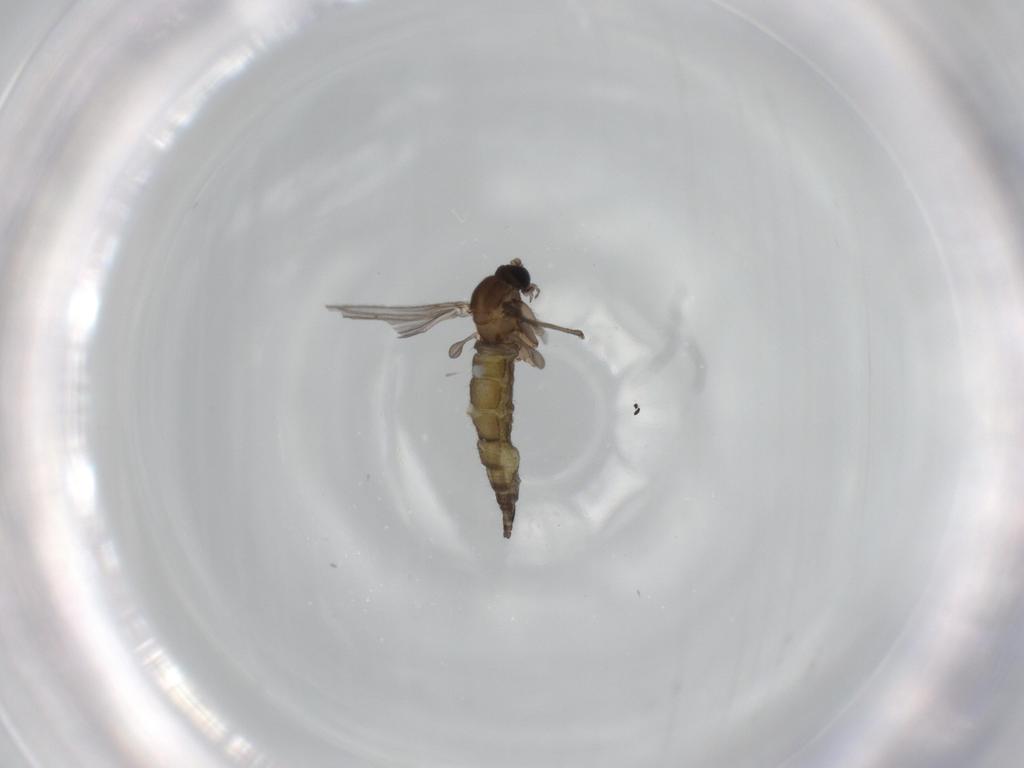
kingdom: Animalia
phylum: Arthropoda
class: Insecta
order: Diptera
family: Sciaridae
